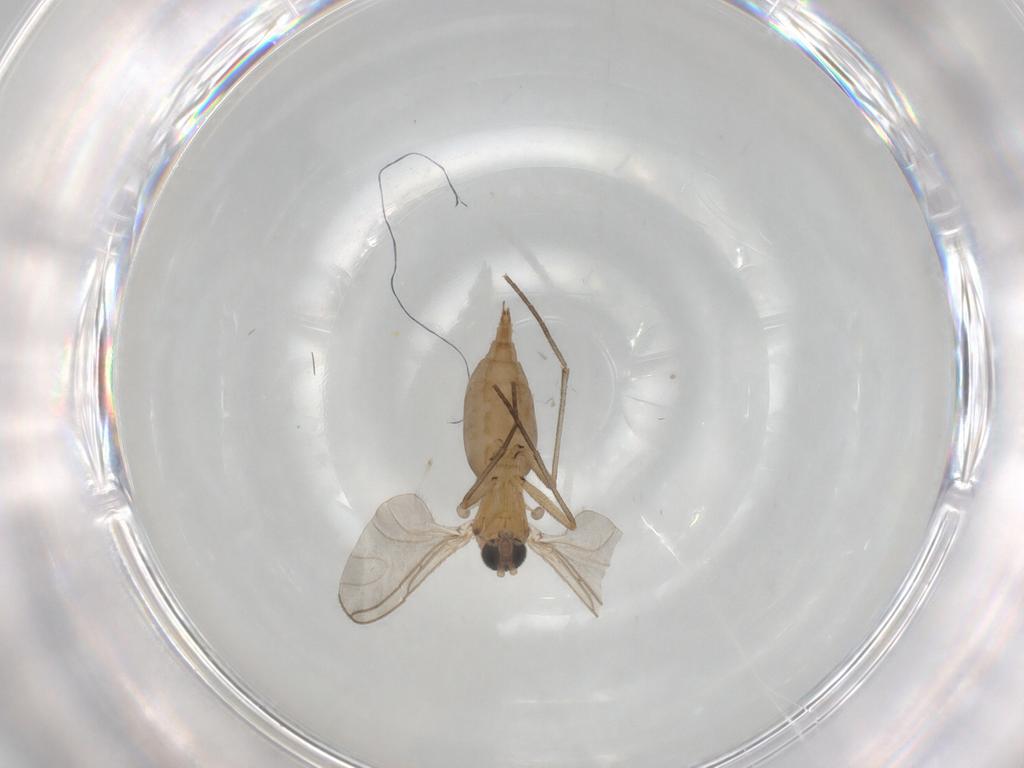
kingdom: Animalia
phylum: Arthropoda
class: Insecta
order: Diptera
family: Sciaridae
